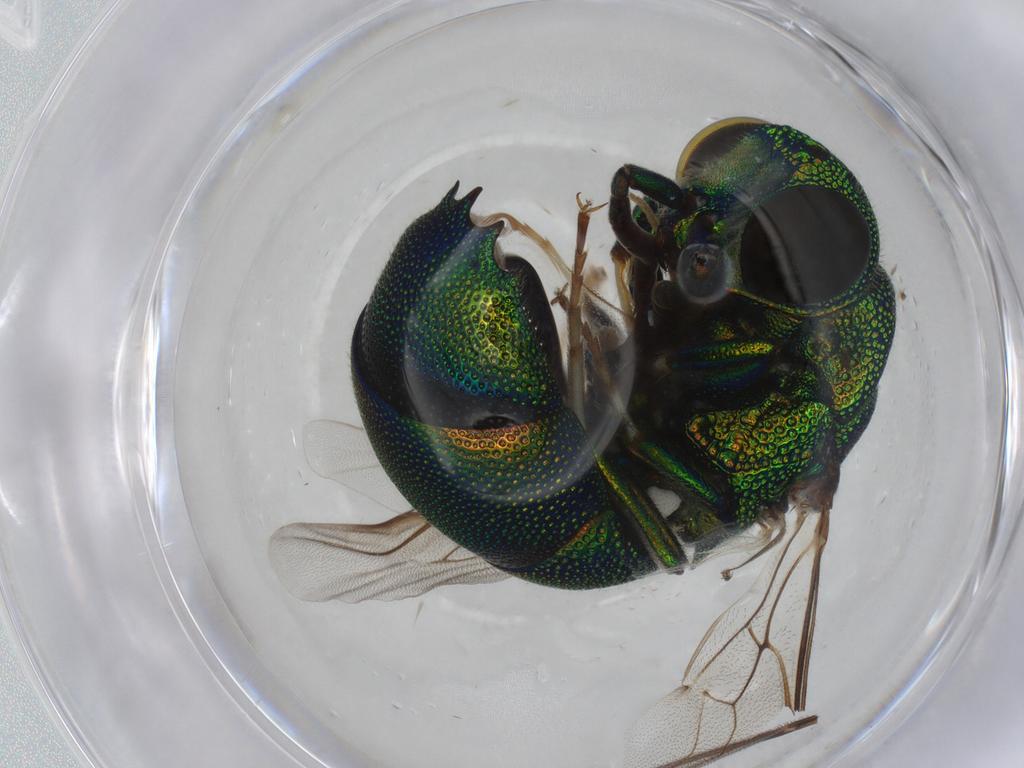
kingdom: Animalia
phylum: Arthropoda
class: Insecta
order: Hymenoptera
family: Chrysididae
